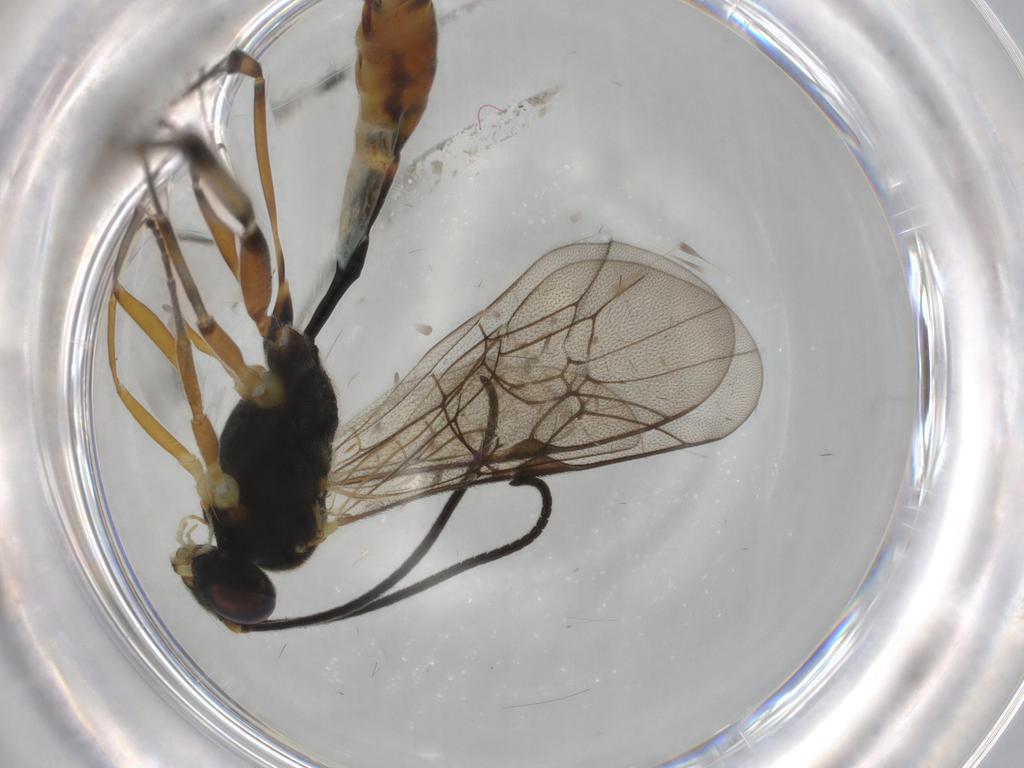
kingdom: Animalia
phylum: Arthropoda
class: Insecta
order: Hymenoptera
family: Ichneumonidae
